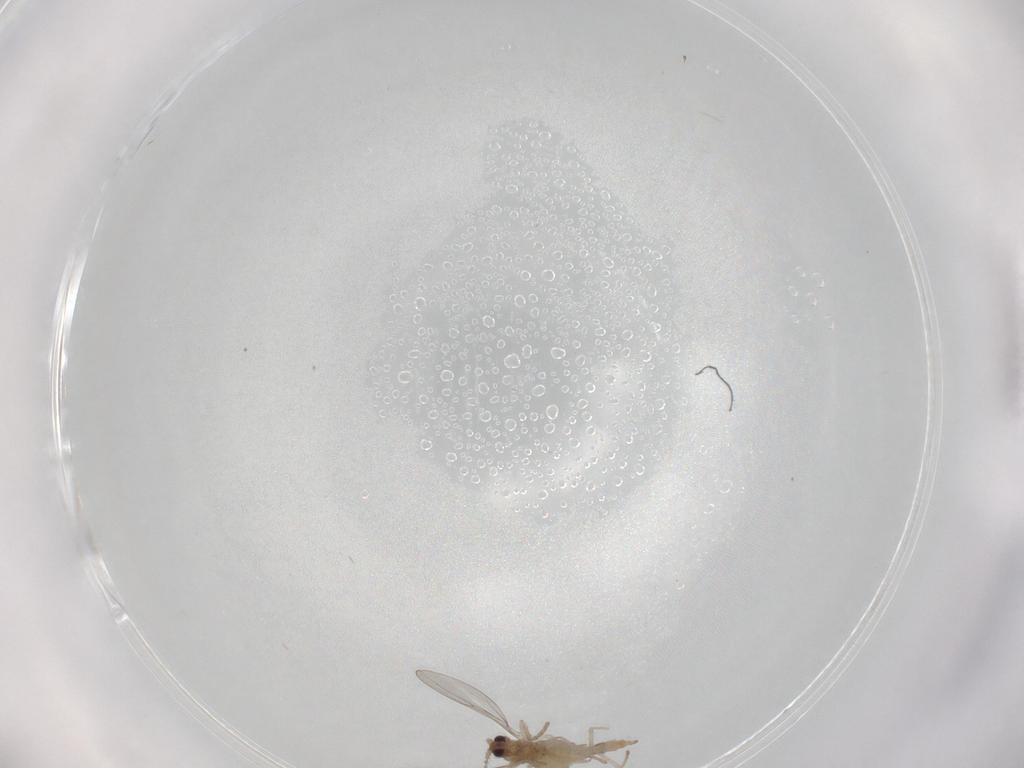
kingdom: Animalia
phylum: Arthropoda
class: Insecta
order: Diptera
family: Cecidomyiidae
